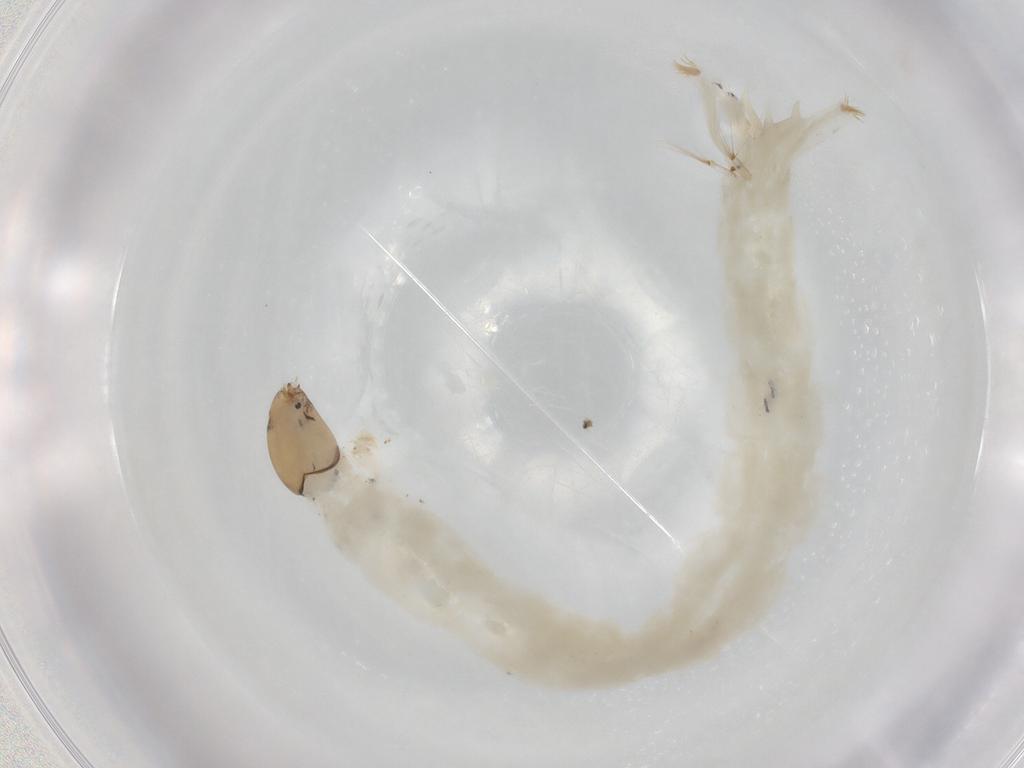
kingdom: Animalia
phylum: Arthropoda
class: Insecta
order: Diptera
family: Chironomidae
